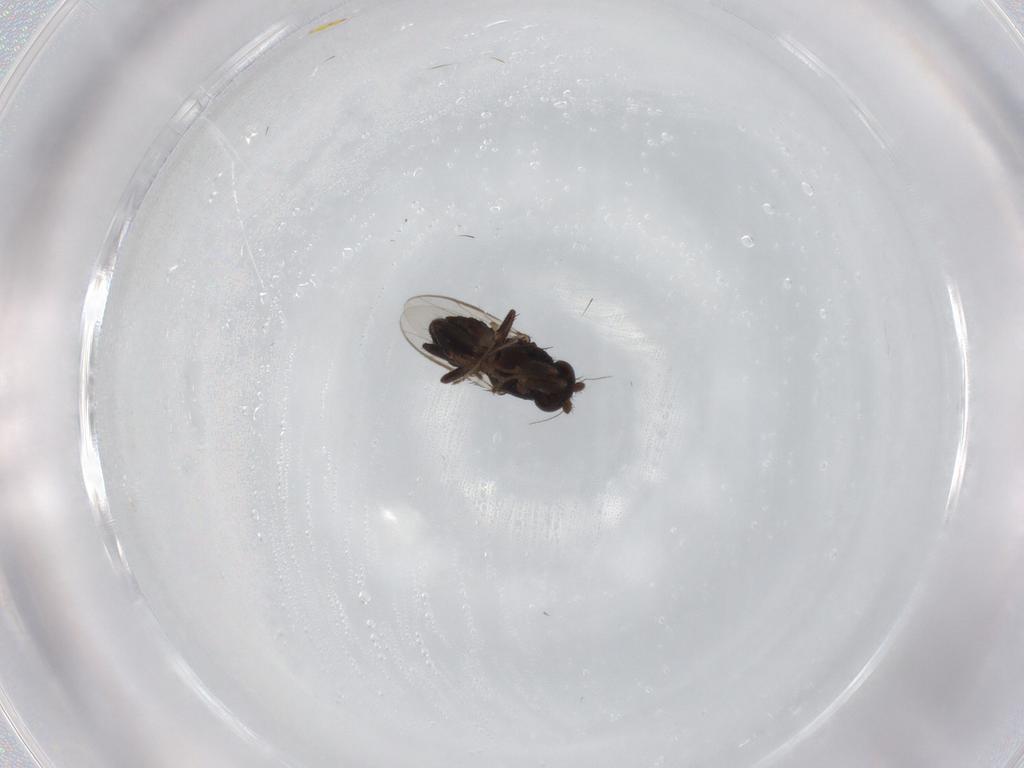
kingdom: Animalia
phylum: Arthropoda
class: Insecta
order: Diptera
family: Sphaeroceridae
